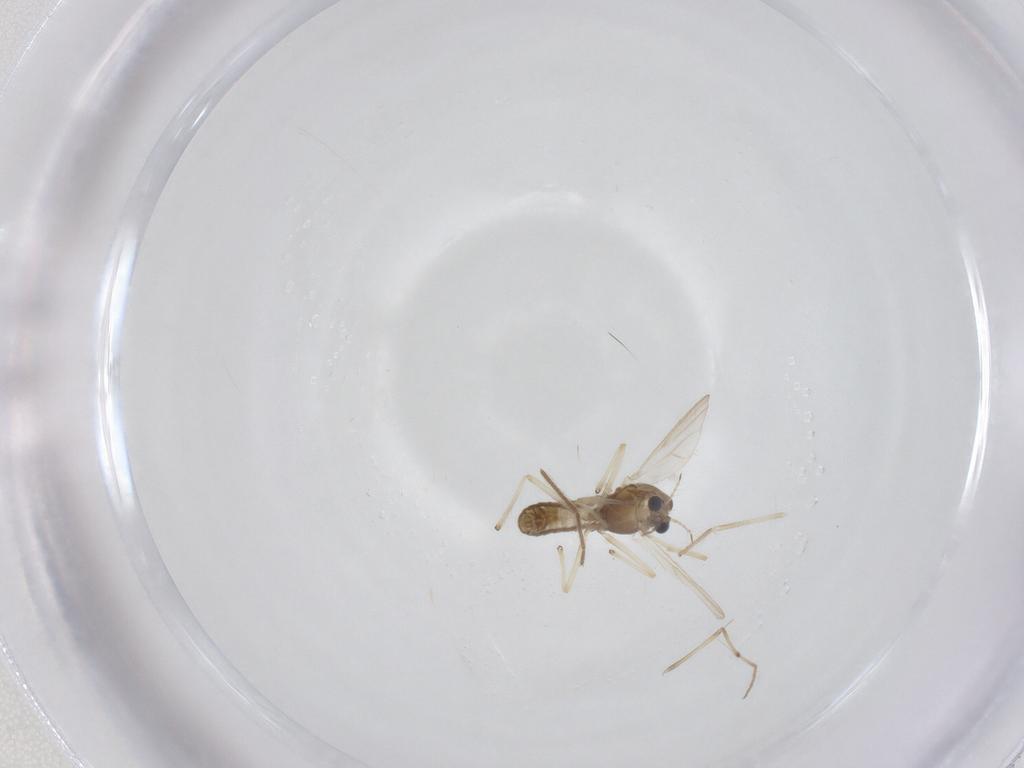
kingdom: Animalia
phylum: Arthropoda
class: Insecta
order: Diptera
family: Chironomidae
